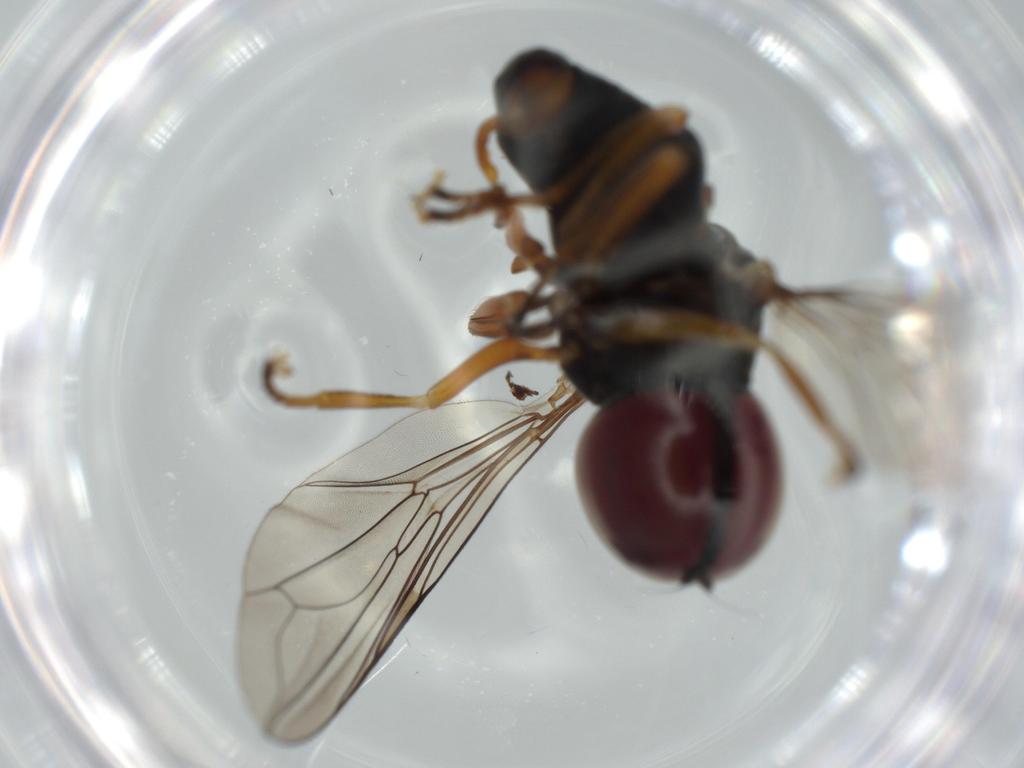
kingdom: Animalia
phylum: Arthropoda
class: Insecta
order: Diptera
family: Pipunculidae
